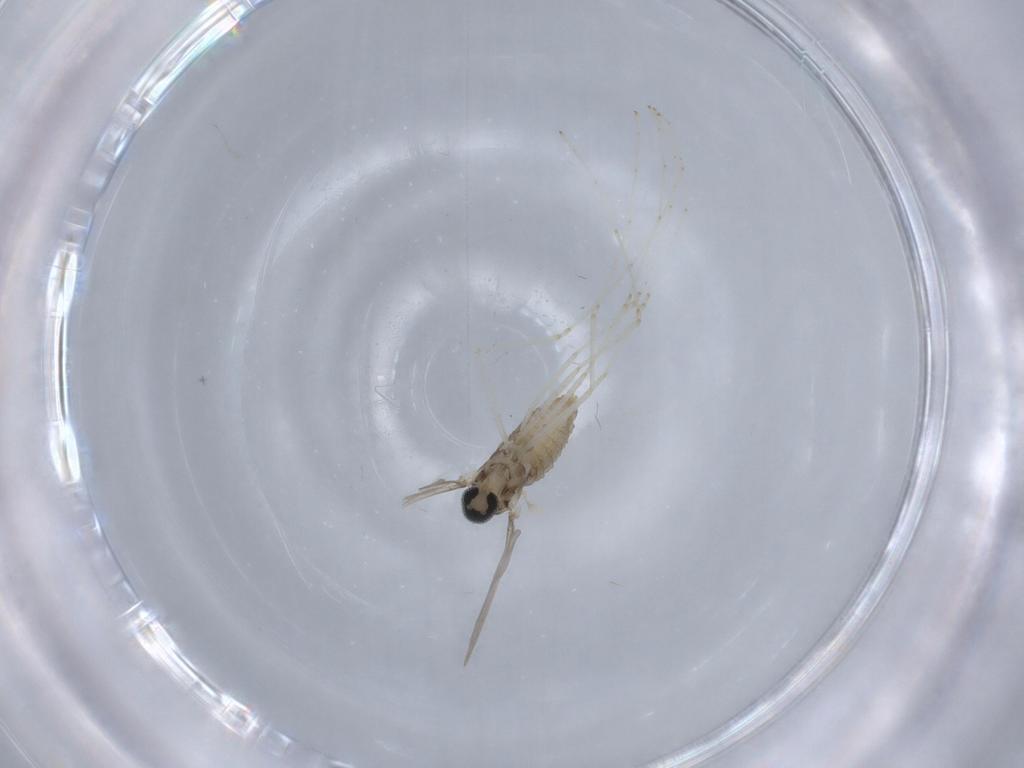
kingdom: Animalia
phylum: Arthropoda
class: Insecta
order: Diptera
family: Cecidomyiidae
